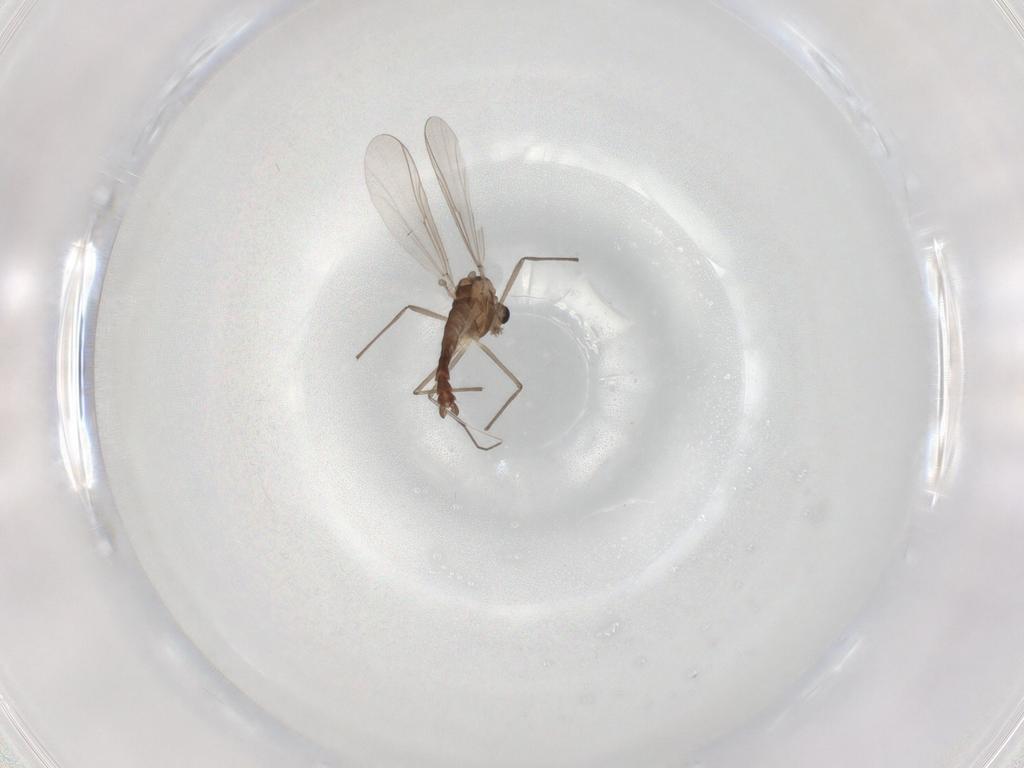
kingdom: Animalia
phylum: Arthropoda
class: Insecta
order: Diptera
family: Chironomidae
